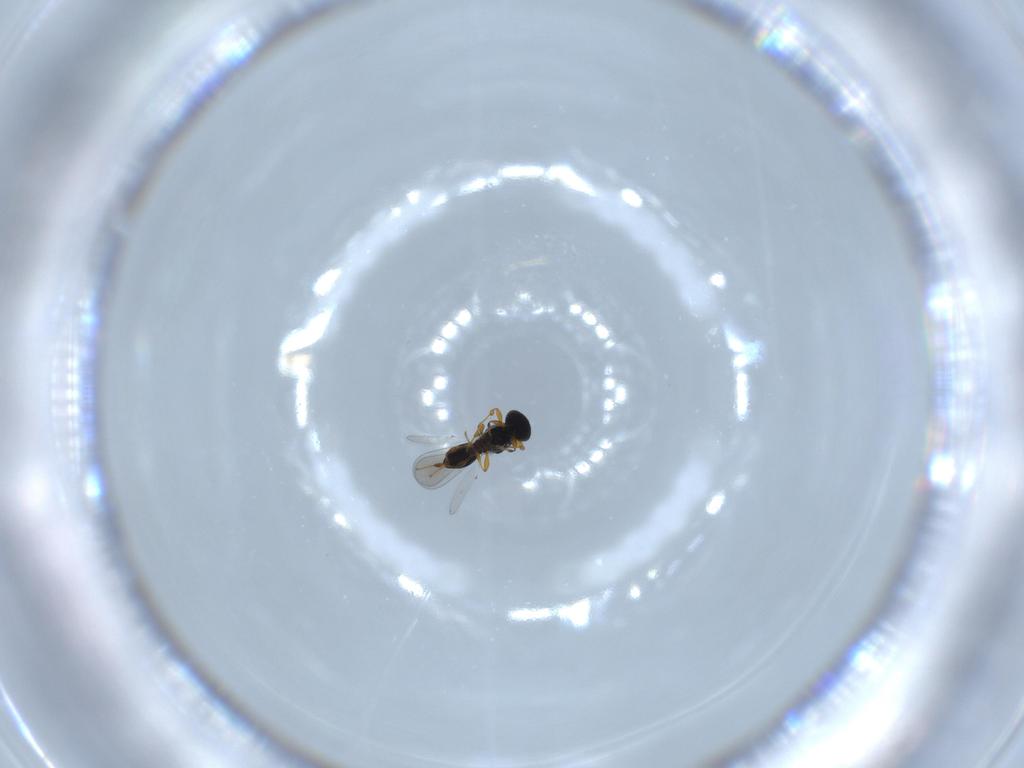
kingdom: Animalia
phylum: Arthropoda
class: Insecta
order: Hymenoptera
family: Platygastridae
